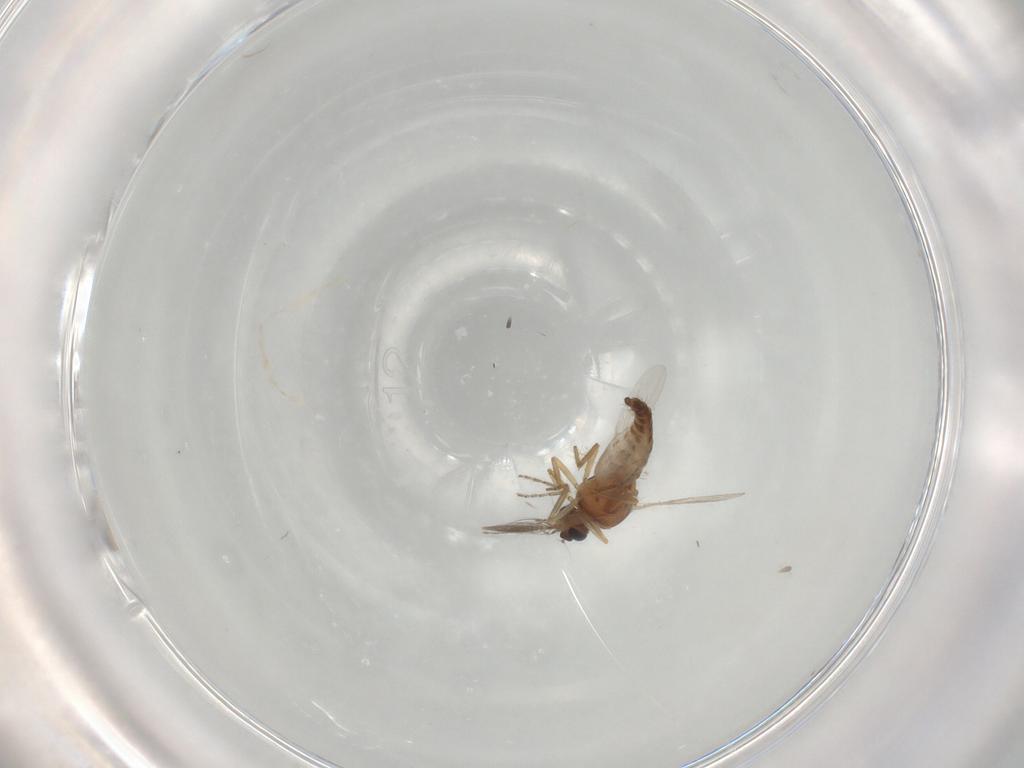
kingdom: Animalia
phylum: Arthropoda
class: Insecta
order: Diptera
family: Ceratopogonidae
